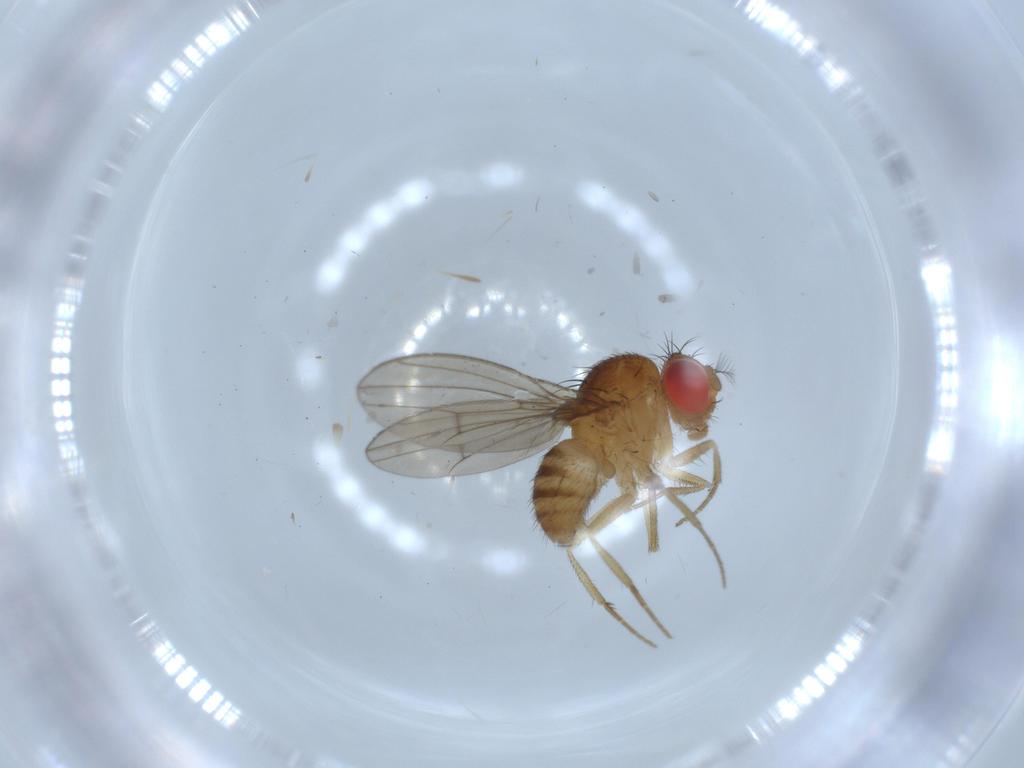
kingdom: Animalia
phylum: Arthropoda
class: Insecta
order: Diptera
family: Drosophilidae
